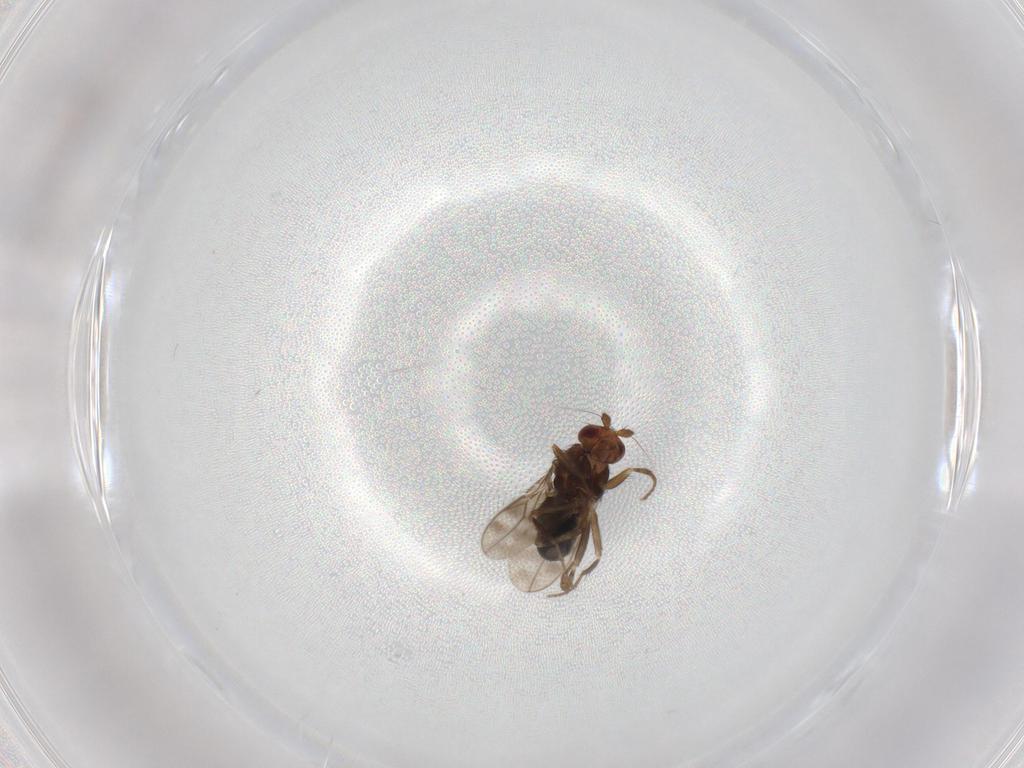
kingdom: Animalia
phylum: Arthropoda
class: Insecta
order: Diptera
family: Sphaeroceridae
